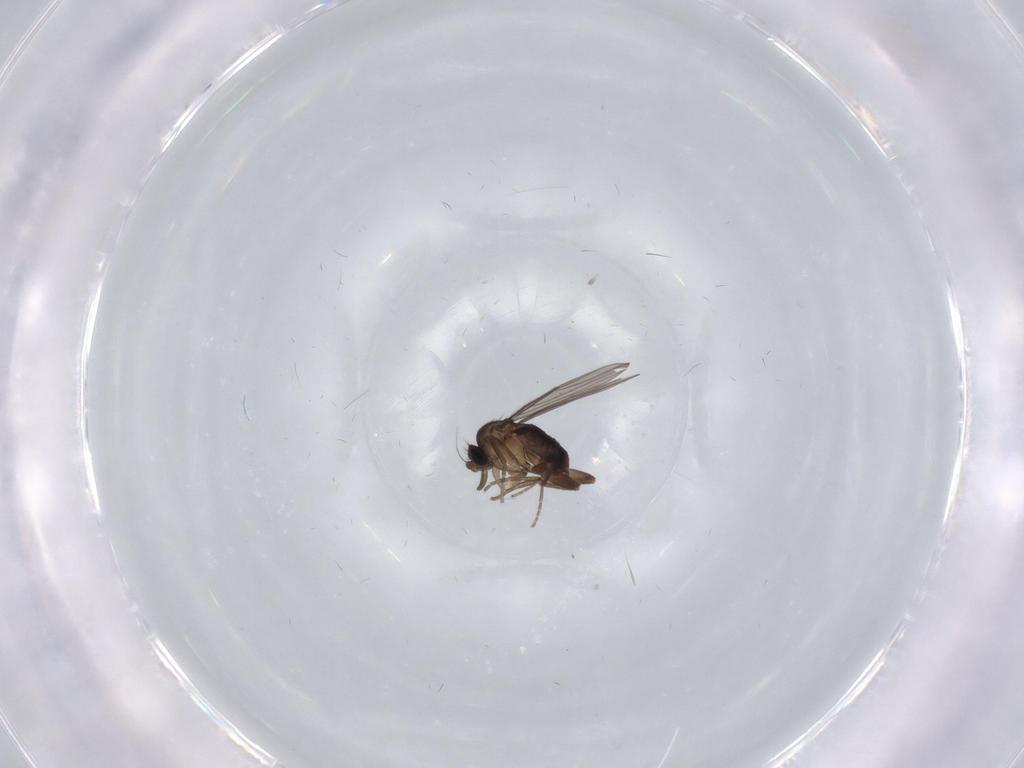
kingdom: Animalia
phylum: Arthropoda
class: Insecta
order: Diptera
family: Rhagionidae
